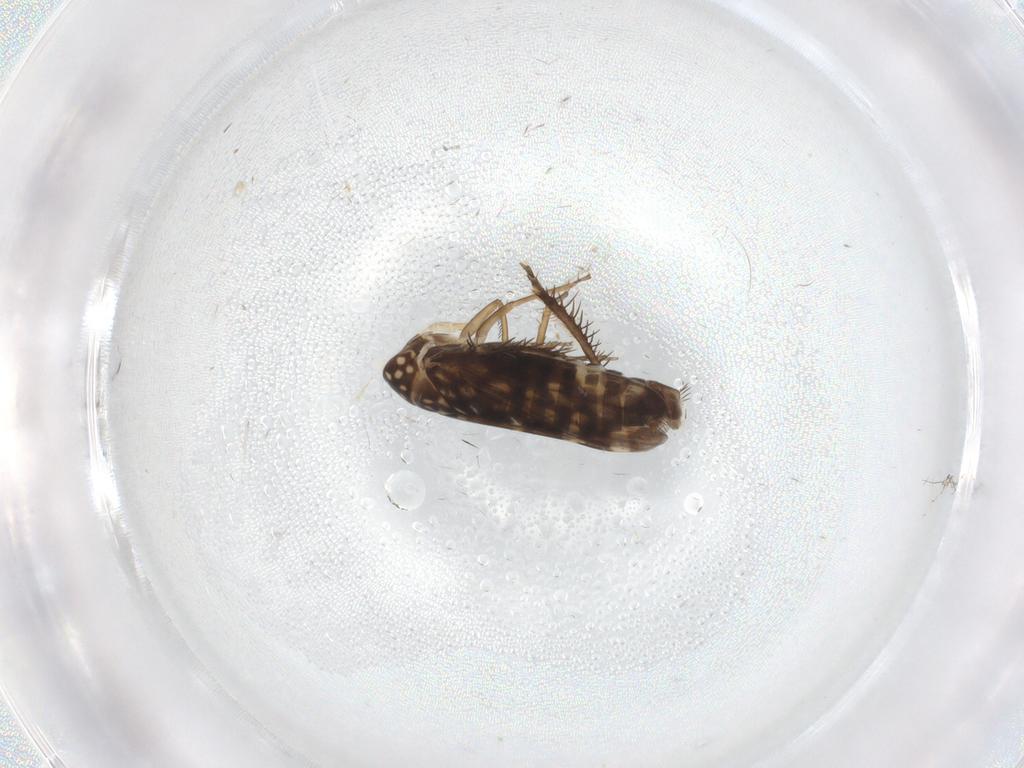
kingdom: Animalia
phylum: Arthropoda
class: Insecta
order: Hemiptera
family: Cicadellidae
